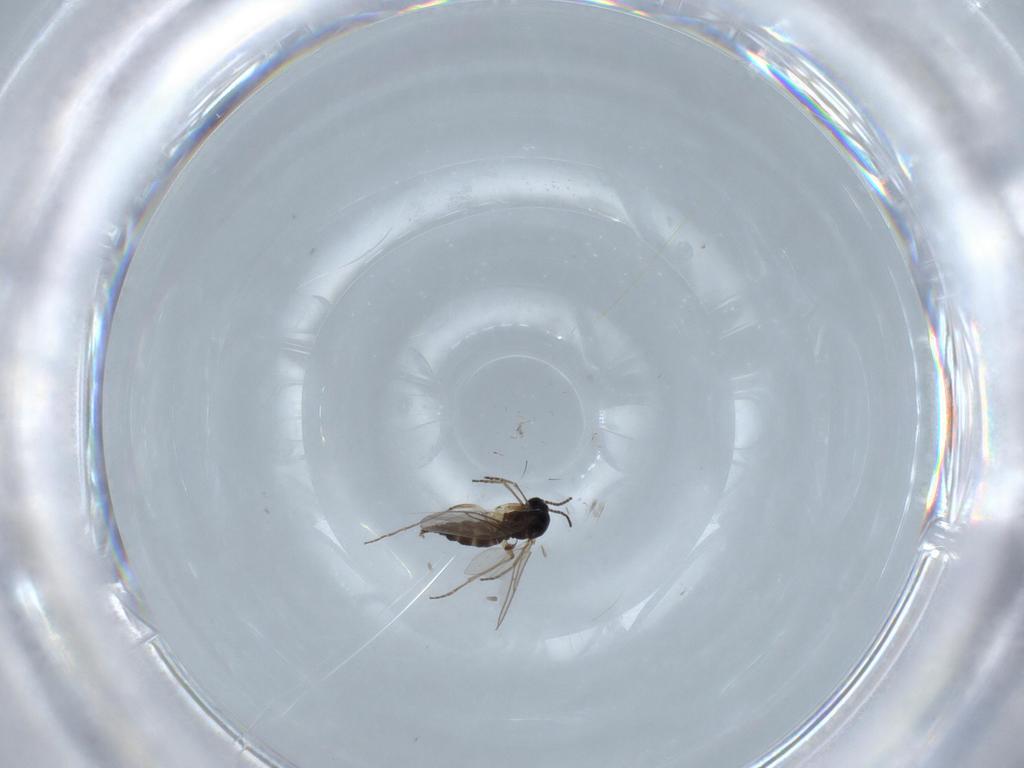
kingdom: Animalia
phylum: Arthropoda
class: Insecta
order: Diptera
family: Sciaridae
